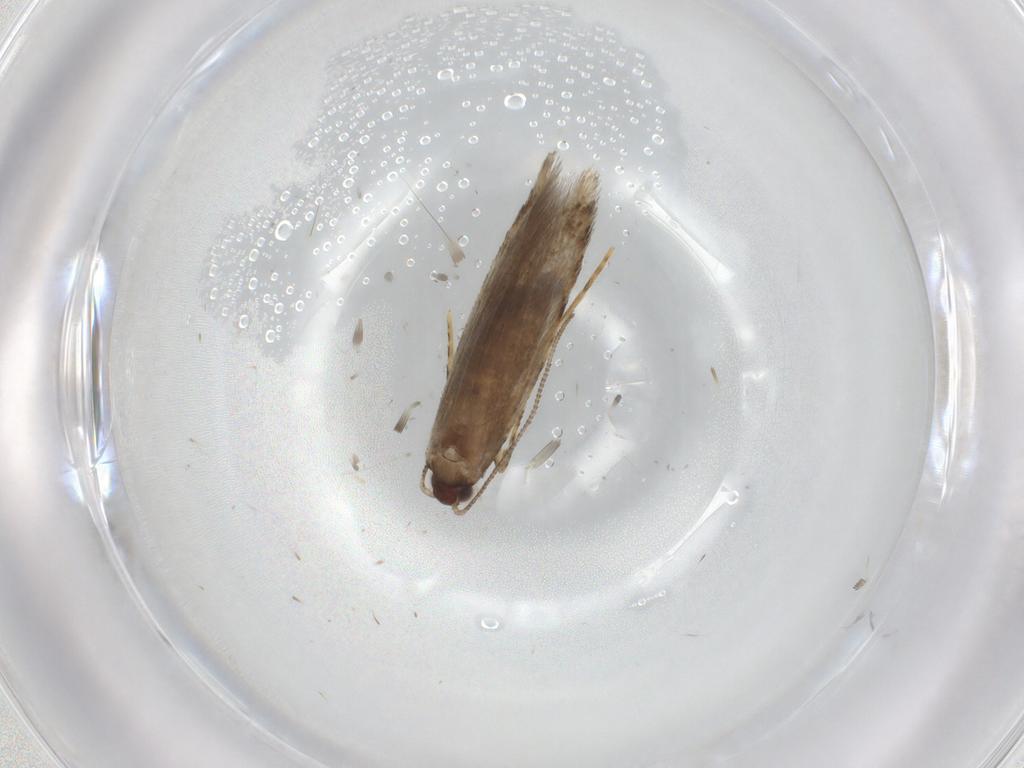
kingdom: Animalia
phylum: Arthropoda
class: Insecta
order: Lepidoptera
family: Tineidae
